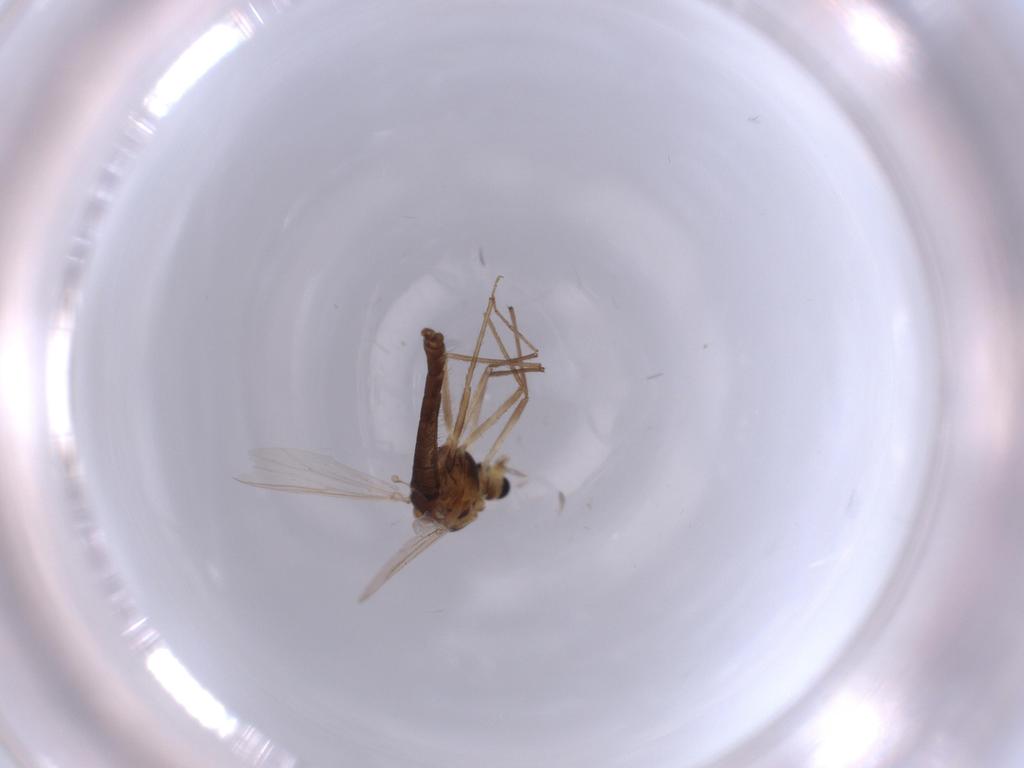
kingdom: Animalia
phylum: Arthropoda
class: Insecta
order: Diptera
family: Chironomidae
